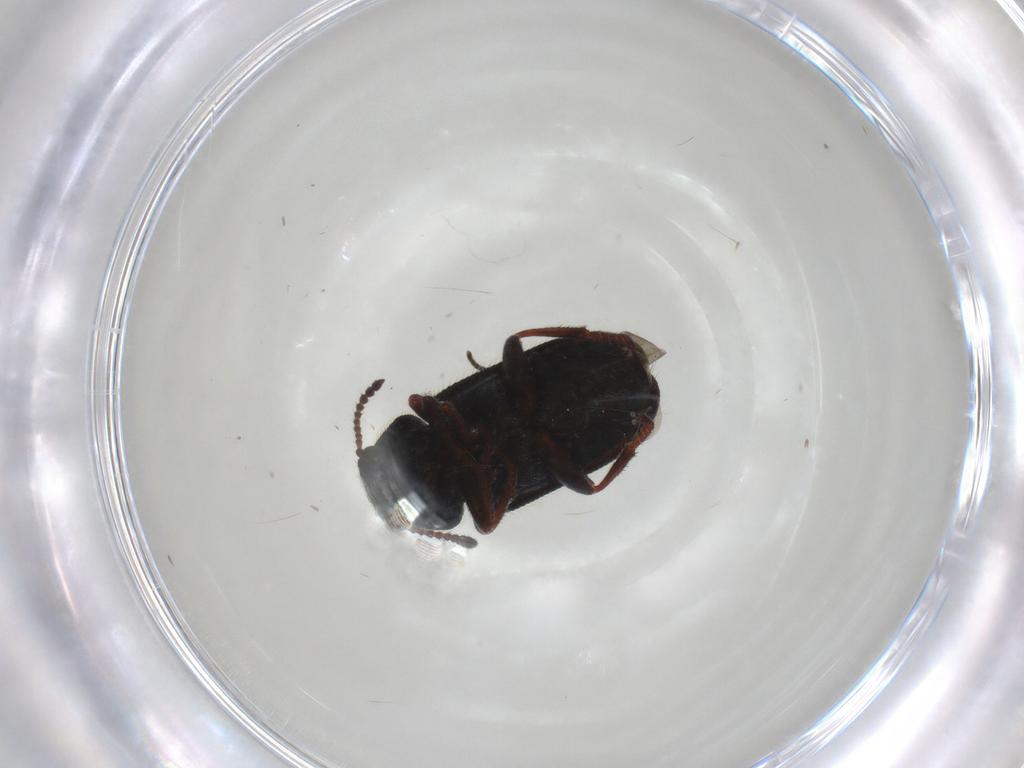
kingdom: Animalia
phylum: Arthropoda
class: Insecta
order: Coleoptera
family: Melyridae
